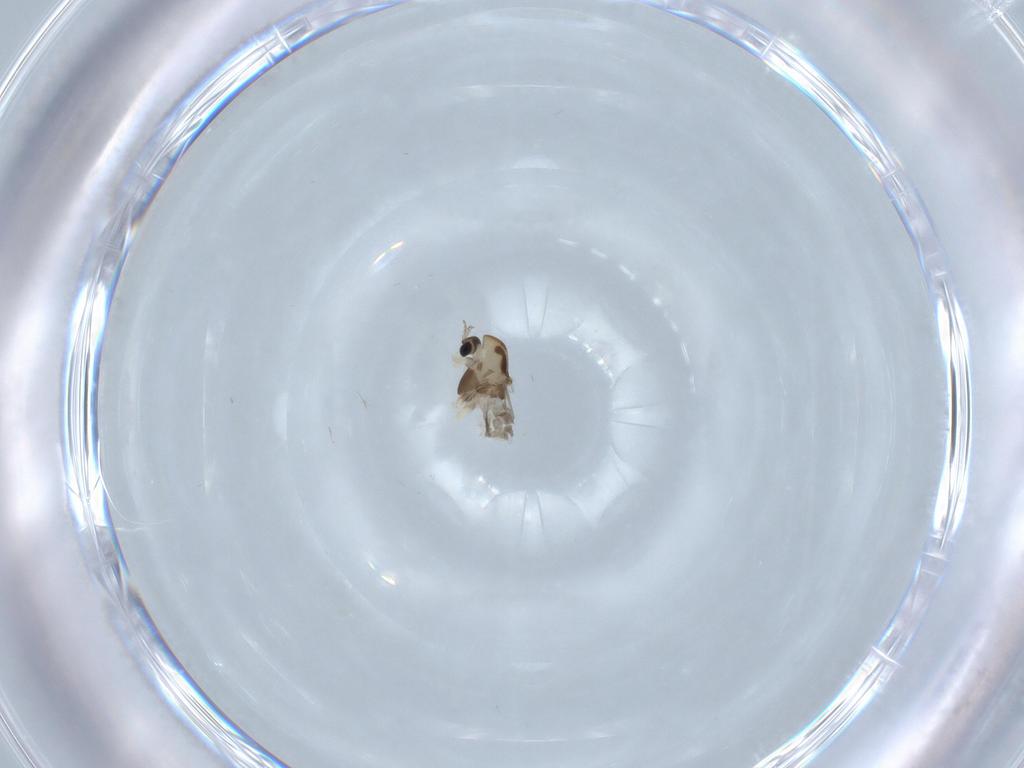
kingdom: Animalia
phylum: Arthropoda
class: Insecta
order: Diptera
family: Chironomidae
